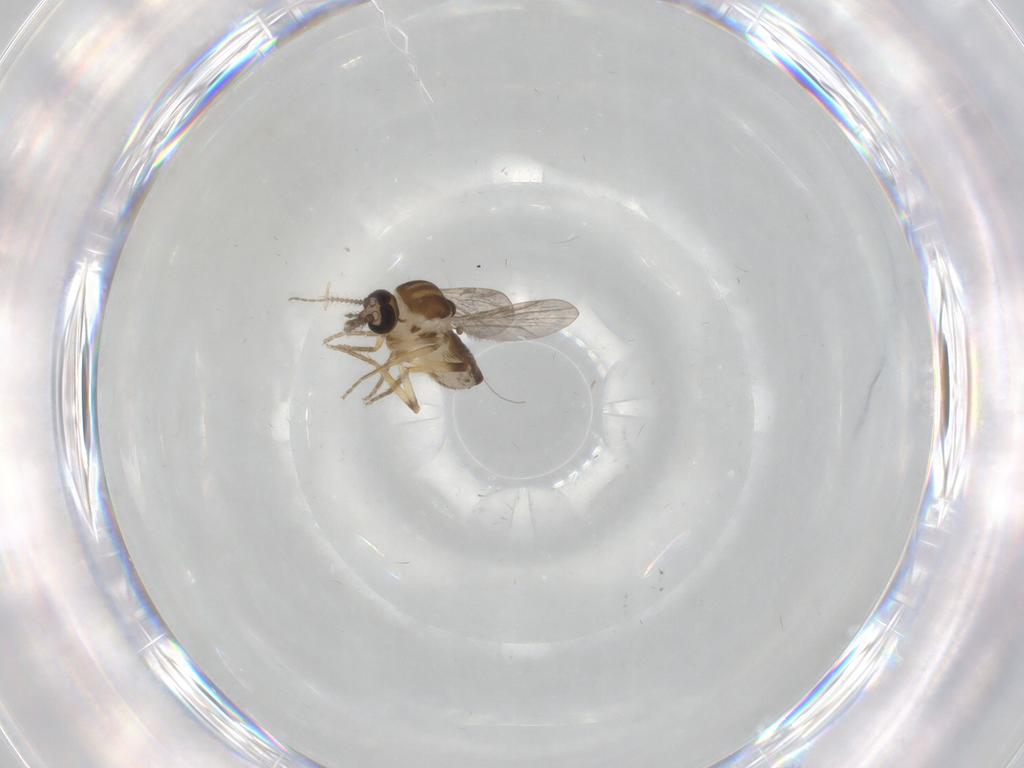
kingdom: Animalia
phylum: Arthropoda
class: Insecta
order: Diptera
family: Ceratopogonidae
